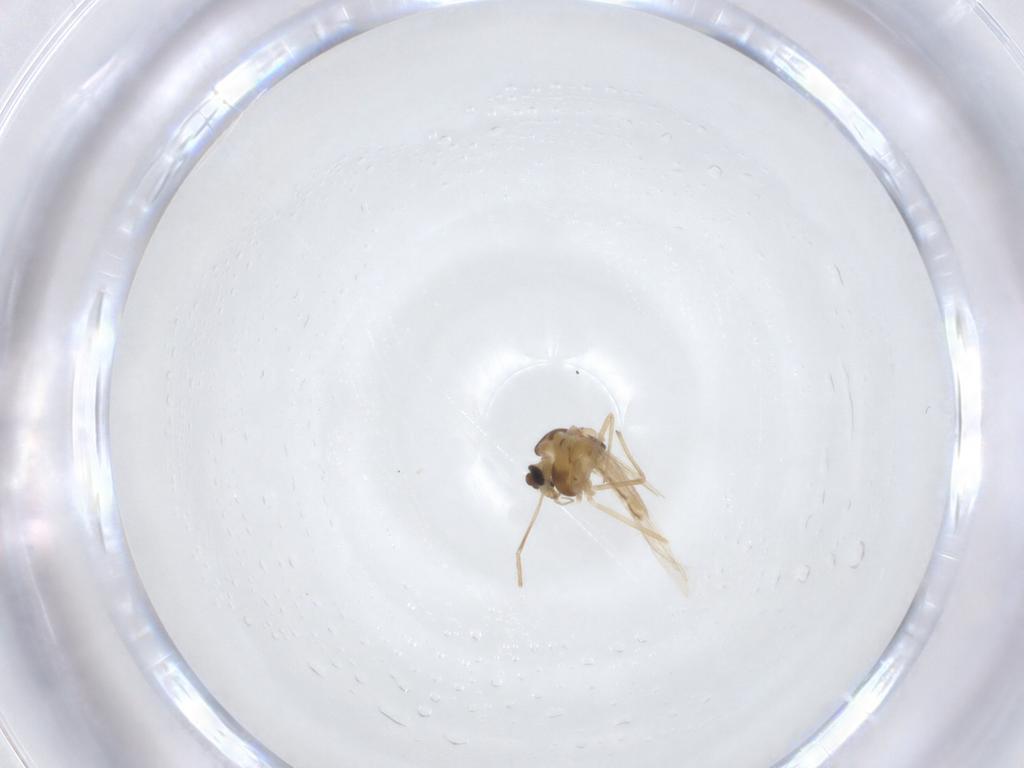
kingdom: Animalia
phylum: Arthropoda
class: Insecta
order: Diptera
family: Chironomidae
